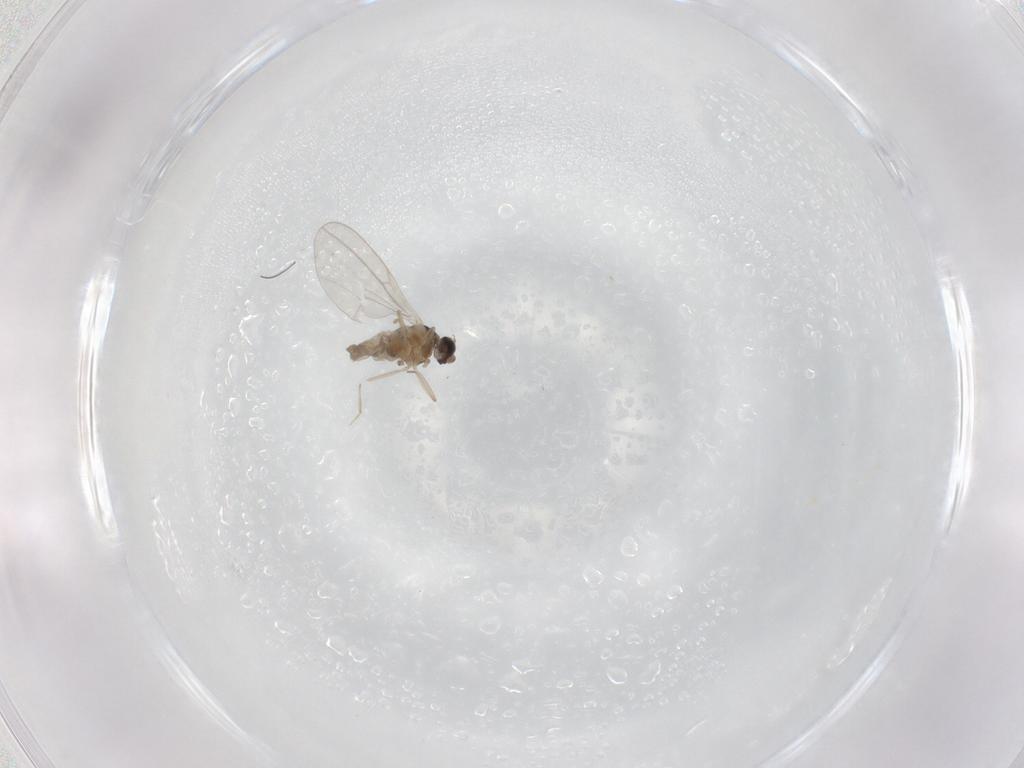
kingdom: Animalia
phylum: Arthropoda
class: Insecta
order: Diptera
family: Cecidomyiidae
